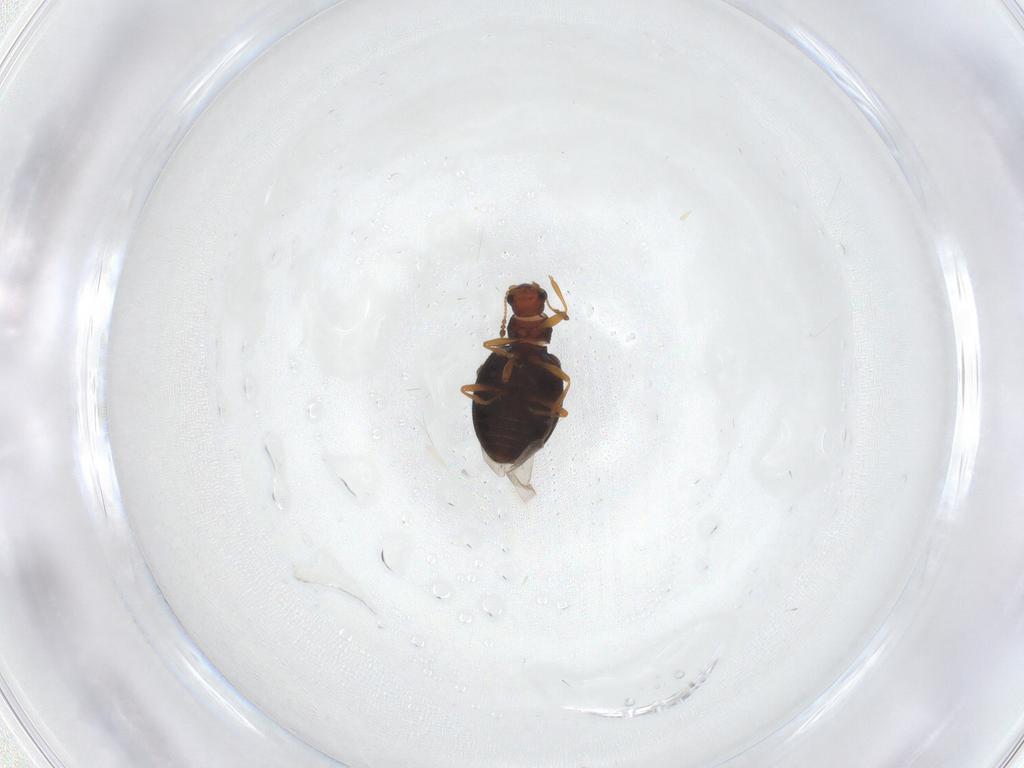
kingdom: Animalia
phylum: Arthropoda
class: Insecta
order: Coleoptera
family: Latridiidae
